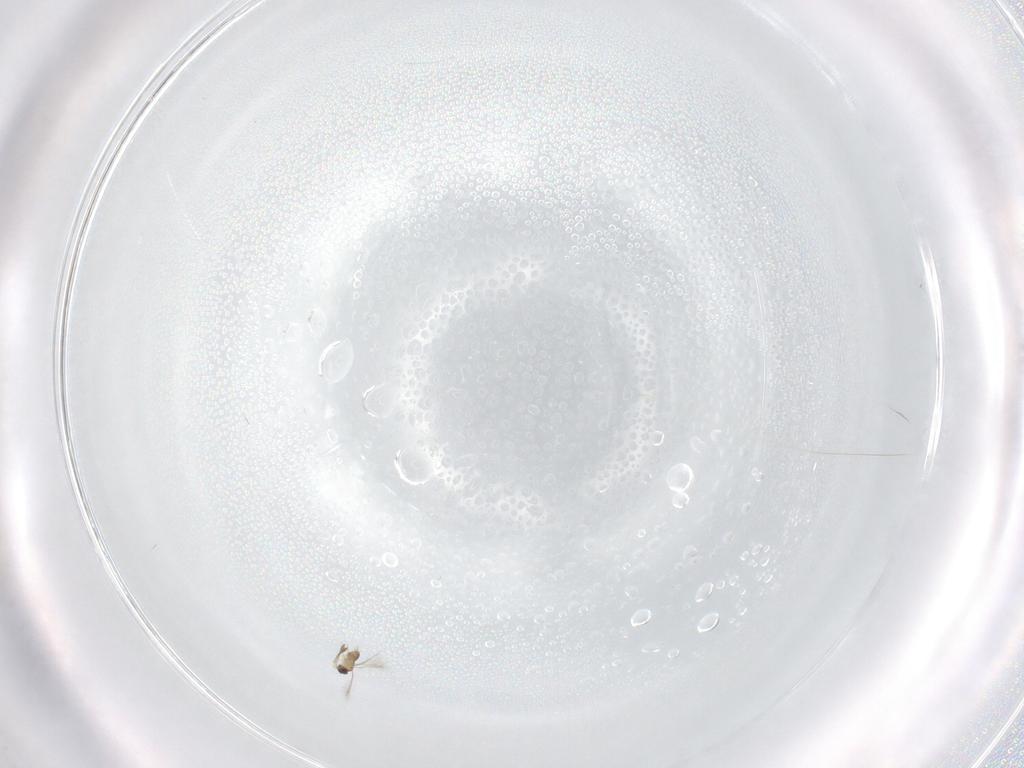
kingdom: Animalia
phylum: Arthropoda
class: Insecta
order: Hymenoptera
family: Mymaridae
